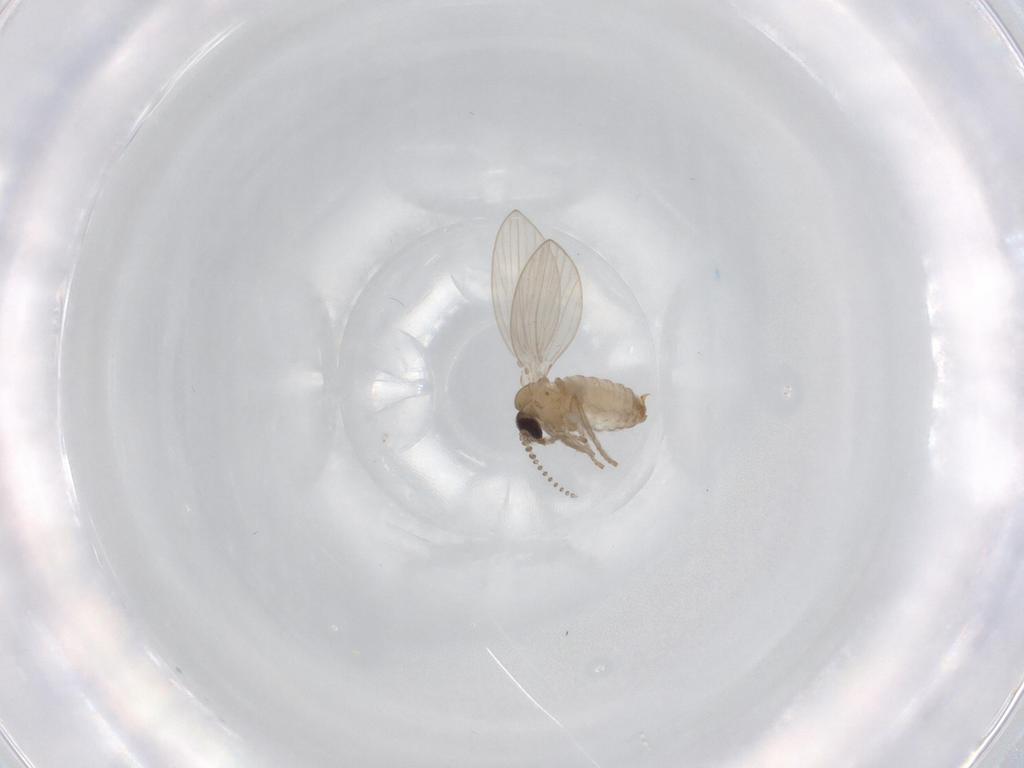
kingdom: Animalia
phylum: Arthropoda
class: Insecta
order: Diptera
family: Psychodidae
